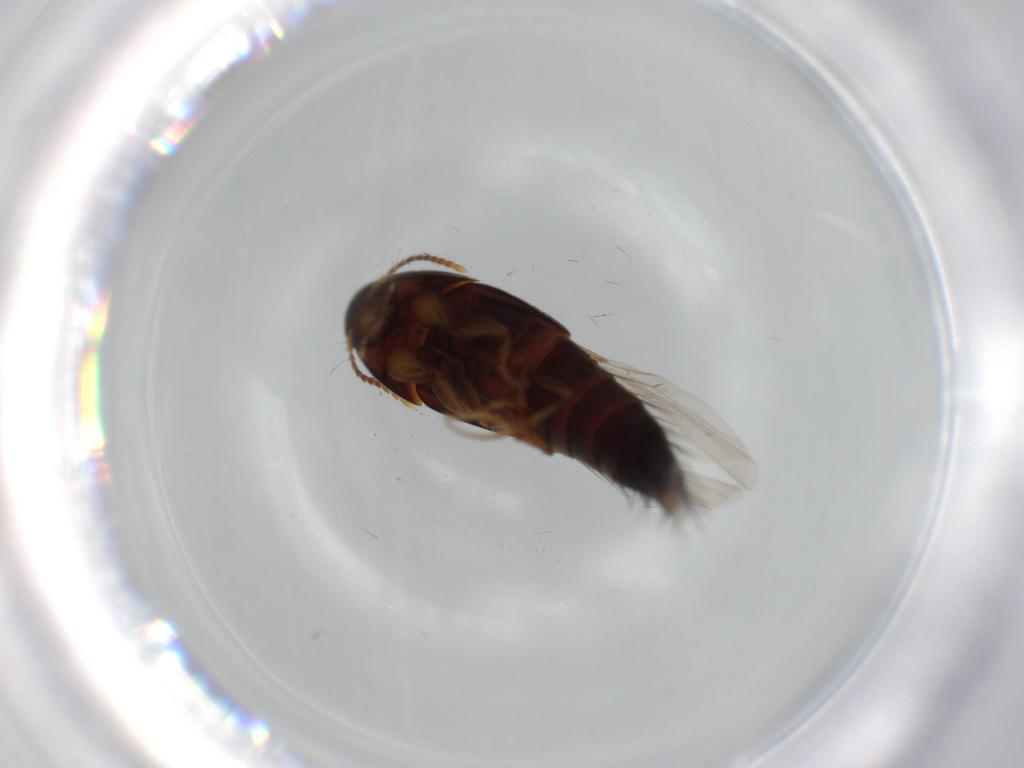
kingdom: Animalia
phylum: Arthropoda
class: Insecta
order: Coleoptera
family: Staphylinidae
